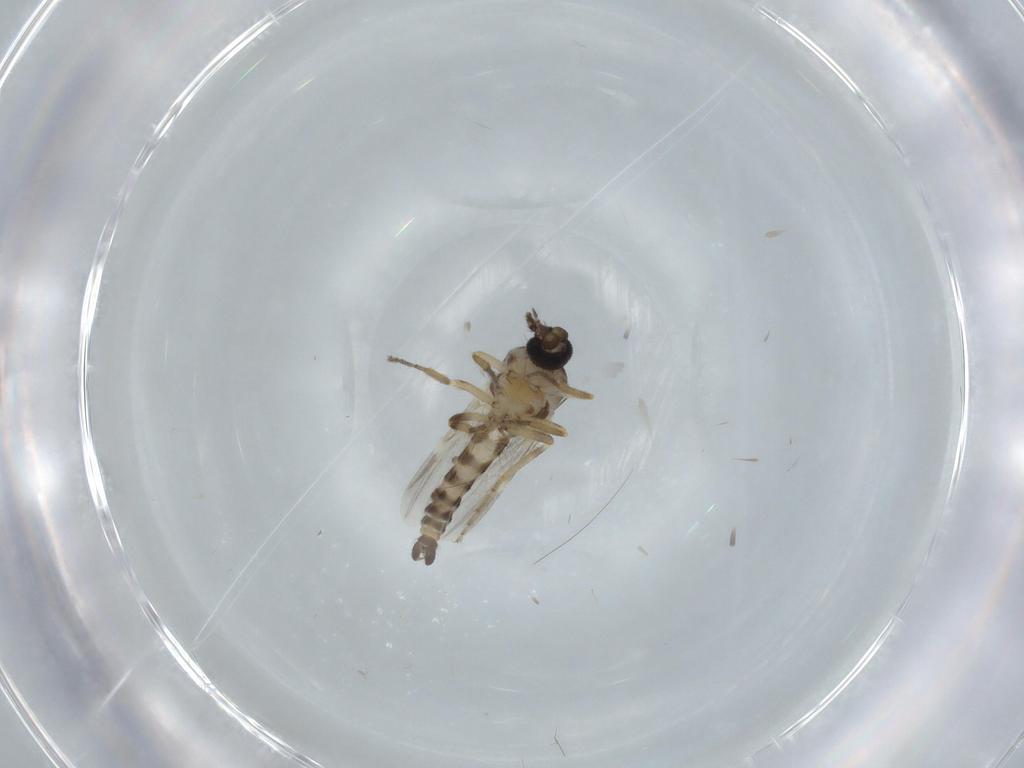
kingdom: Animalia
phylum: Arthropoda
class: Insecta
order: Diptera
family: Ceratopogonidae
